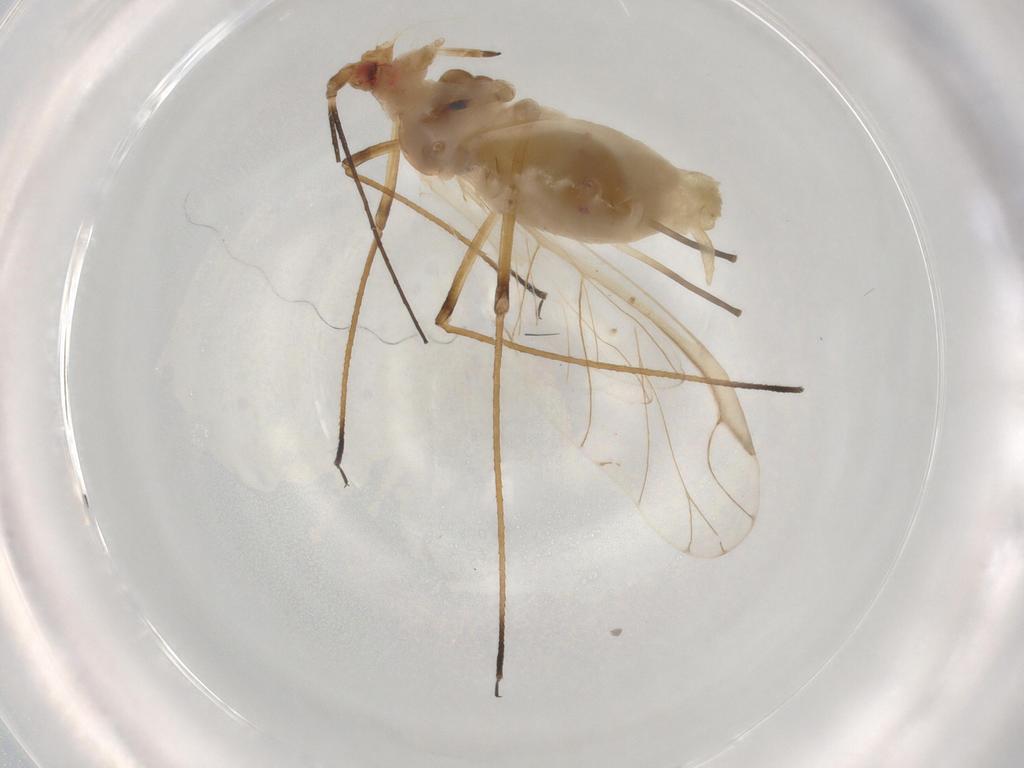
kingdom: Animalia
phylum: Arthropoda
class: Insecta
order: Hemiptera
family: Aphididae
